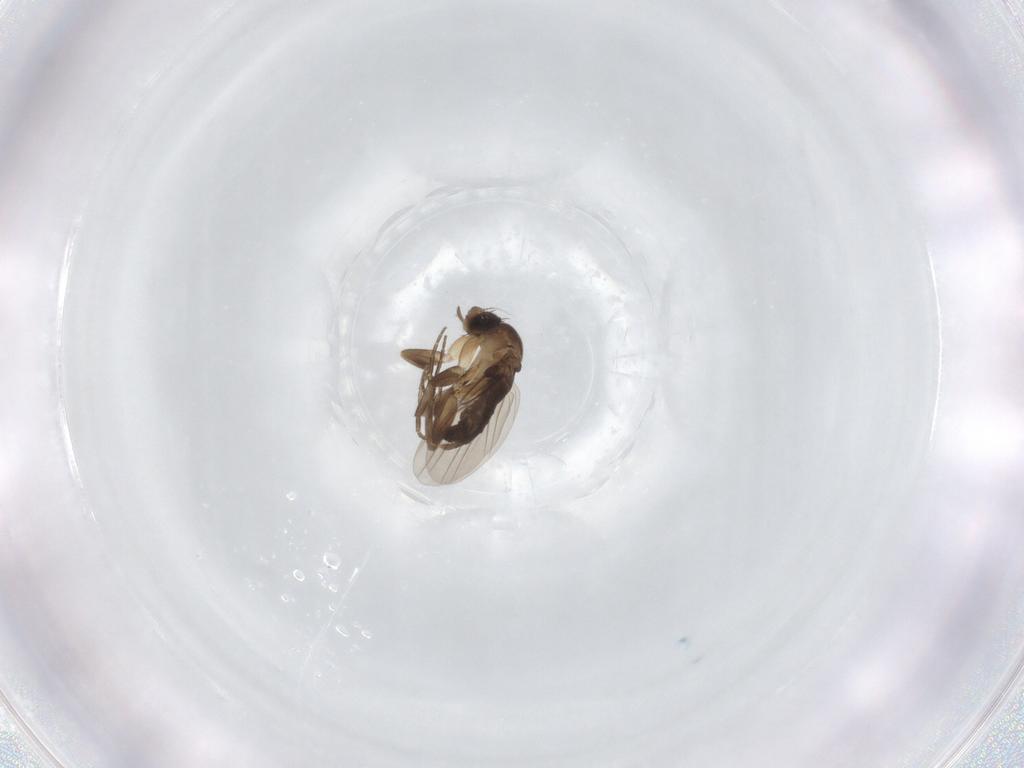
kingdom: Animalia
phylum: Arthropoda
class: Insecta
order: Diptera
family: Phoridae
